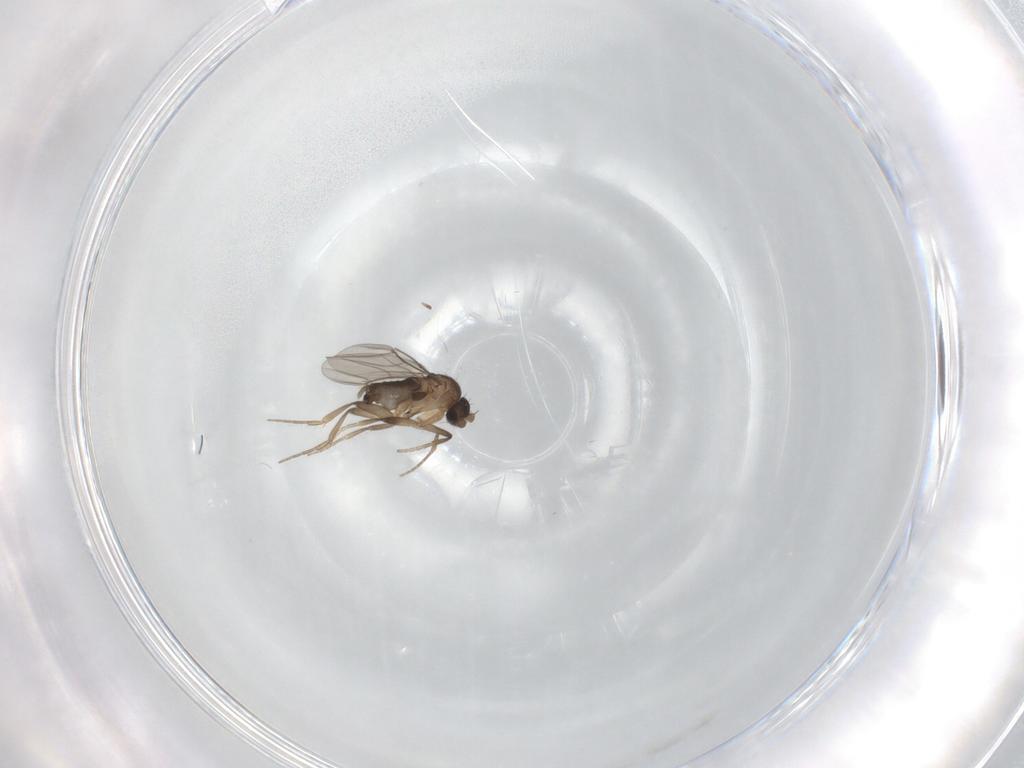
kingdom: Animalia
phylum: Arthropoda
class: Insecta
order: Diptera
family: Phoridae
